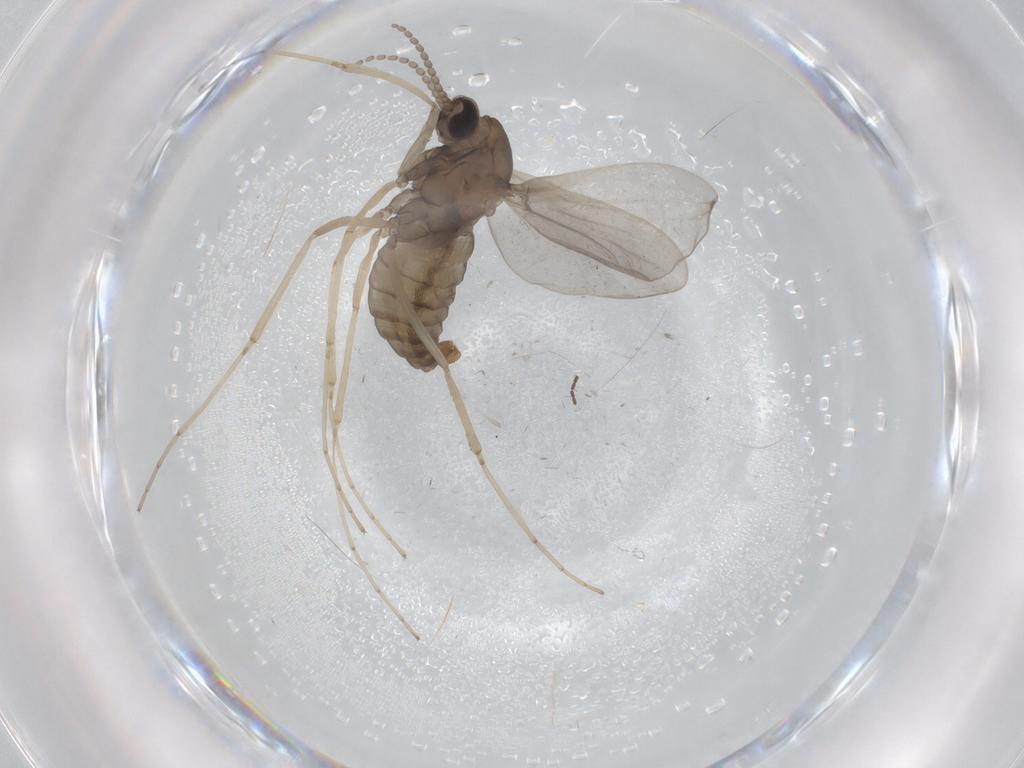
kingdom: Animalia
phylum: Arthropoda
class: Insecta
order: Diptera
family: Cecidomyiidae
